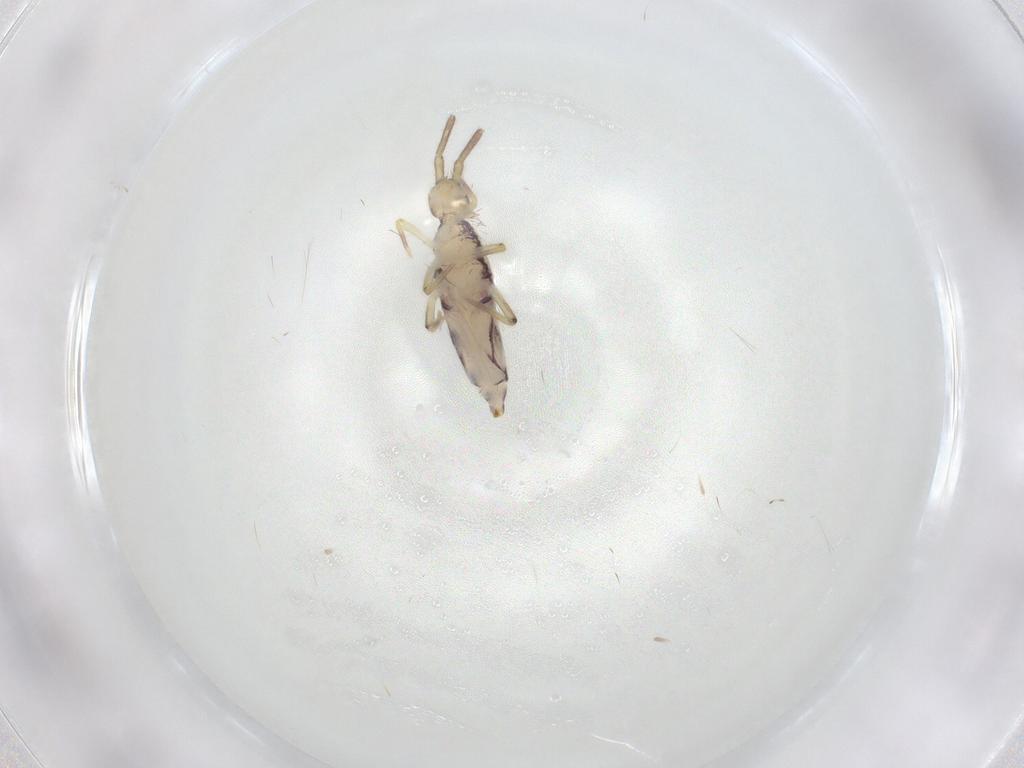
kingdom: Animalia
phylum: Arthropoda
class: Collembola
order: Entomobryomorpha
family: Entomobryidae
